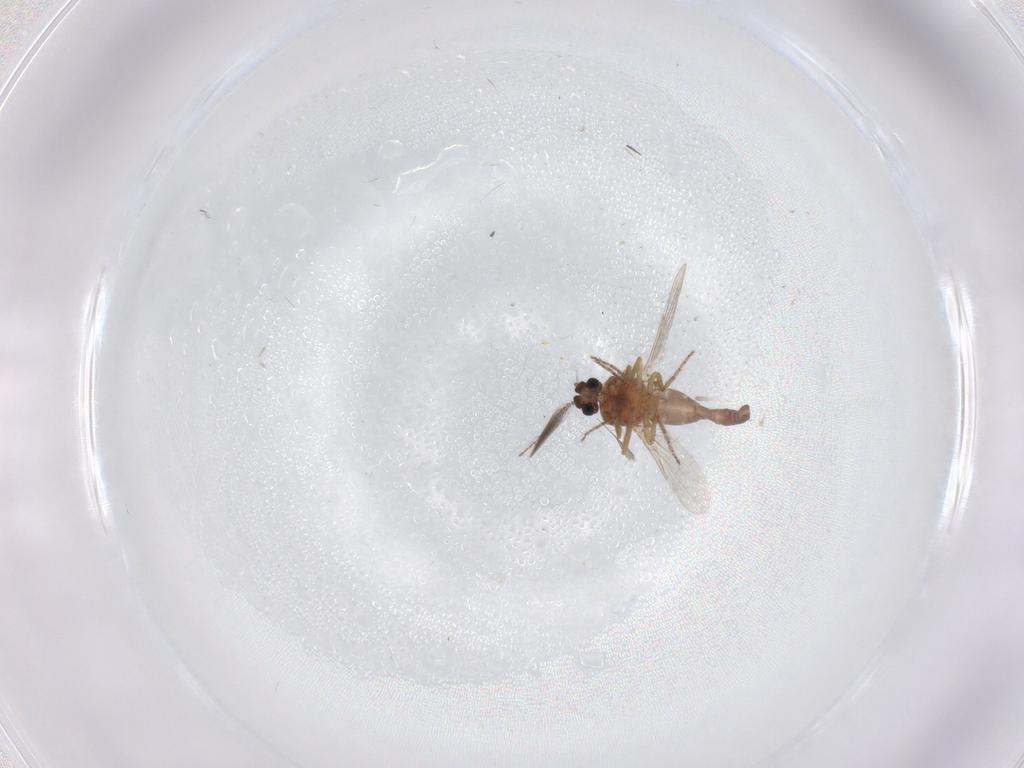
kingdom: Animalia
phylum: Arthropoda
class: Insecta
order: Diptera
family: Ceratopogonidae
